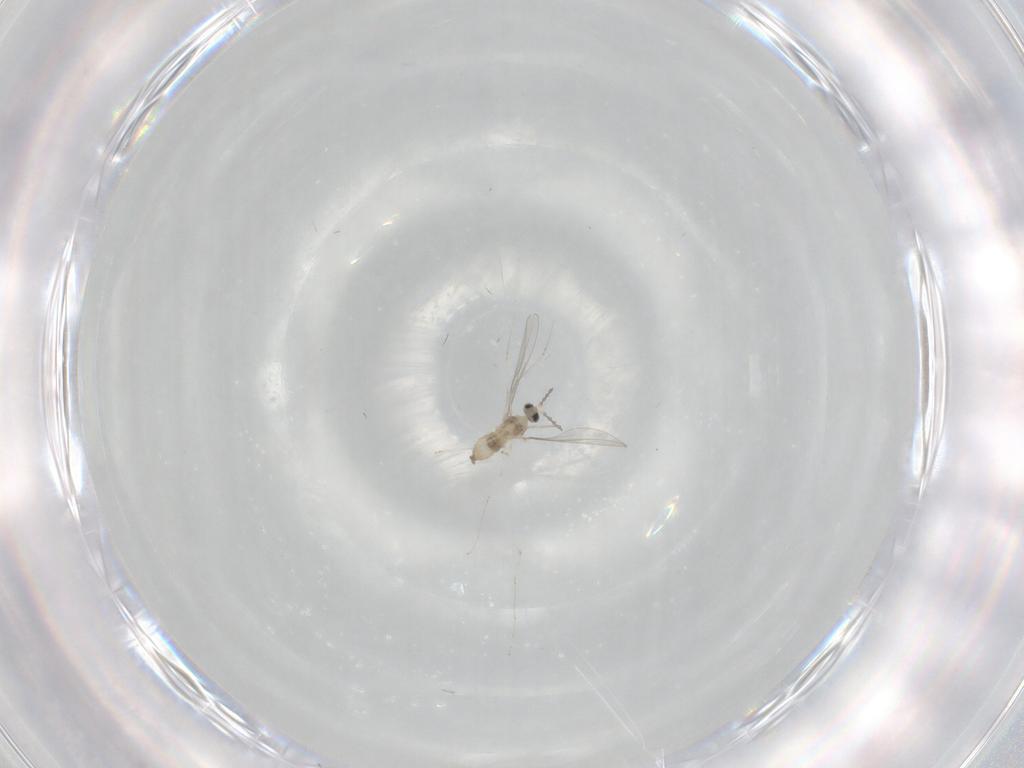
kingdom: Animalia
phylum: Arthropoda
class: Insecta
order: Diptera
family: Cecidomyiidae
